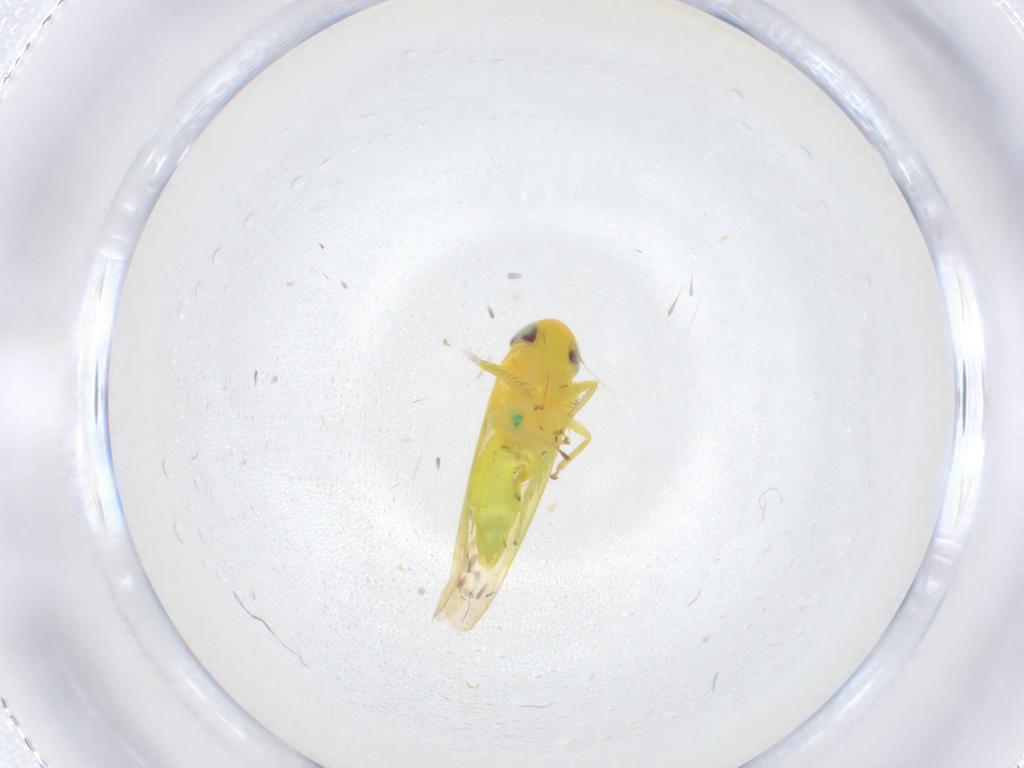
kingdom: Animalia
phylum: Arthropoda
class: Insecta
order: Hemiptera
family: Cicadellidae
